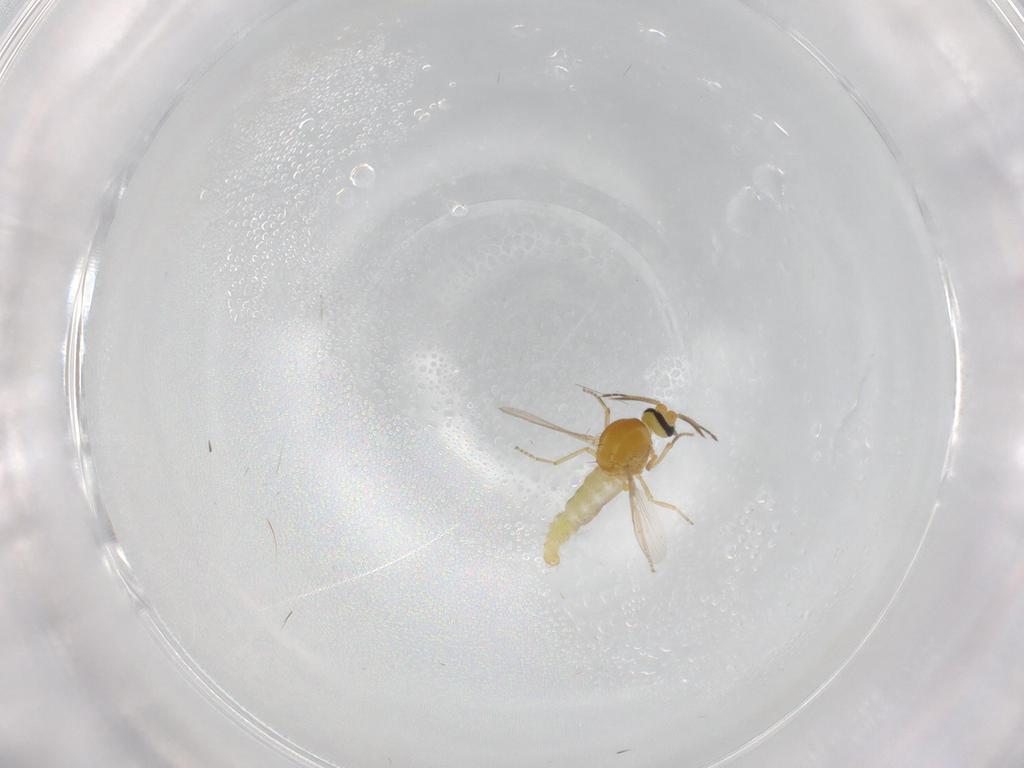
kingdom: Animalia
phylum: Arthropoda
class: Insecta
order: Diptera
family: Ceratopogonidae
